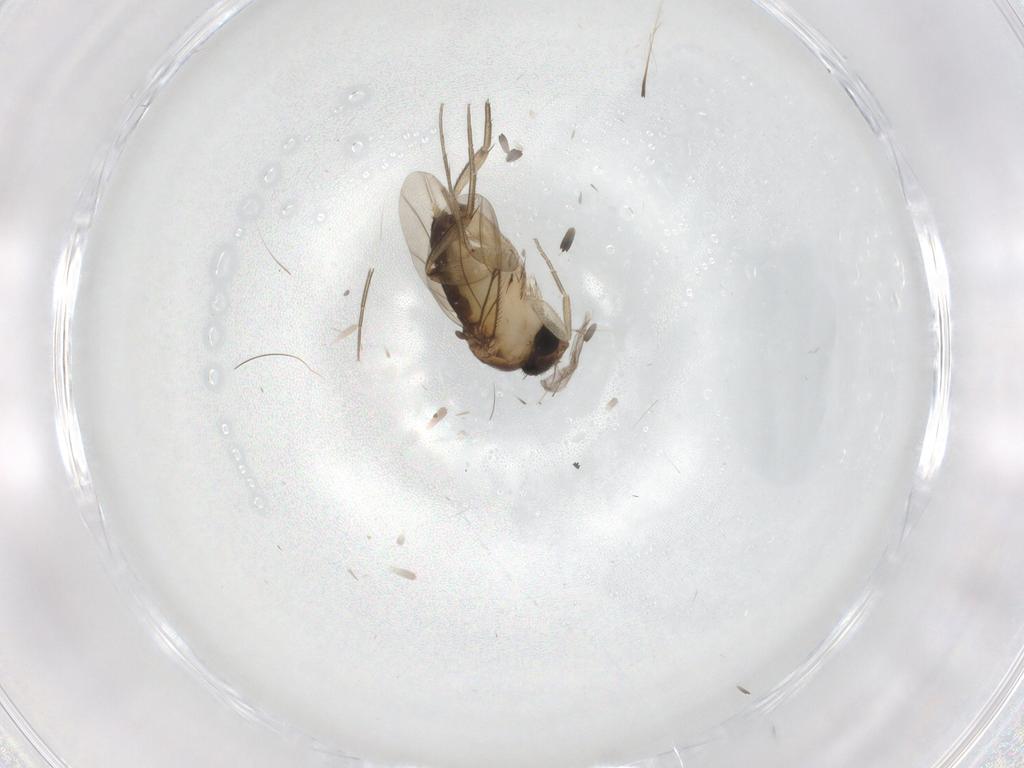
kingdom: Animalia
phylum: Arthropoda
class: Insecta
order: Diptera
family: Phoridae
